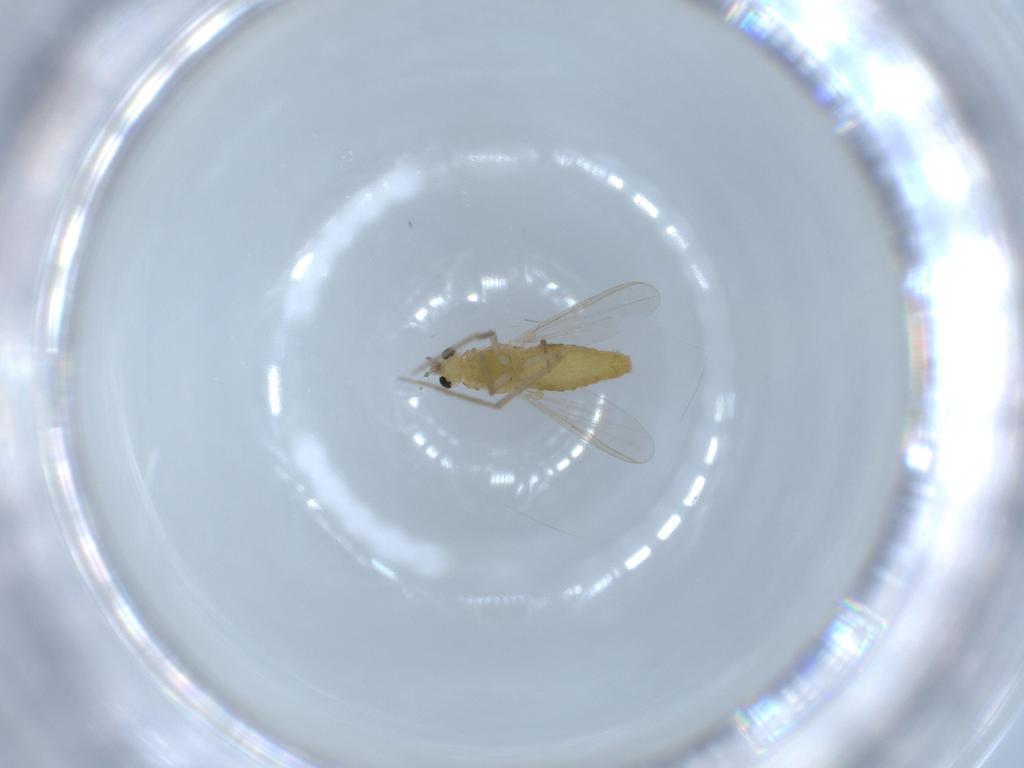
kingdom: Animalia
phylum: Arthropoda
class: Insecta
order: Diptera
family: Chironomidae
